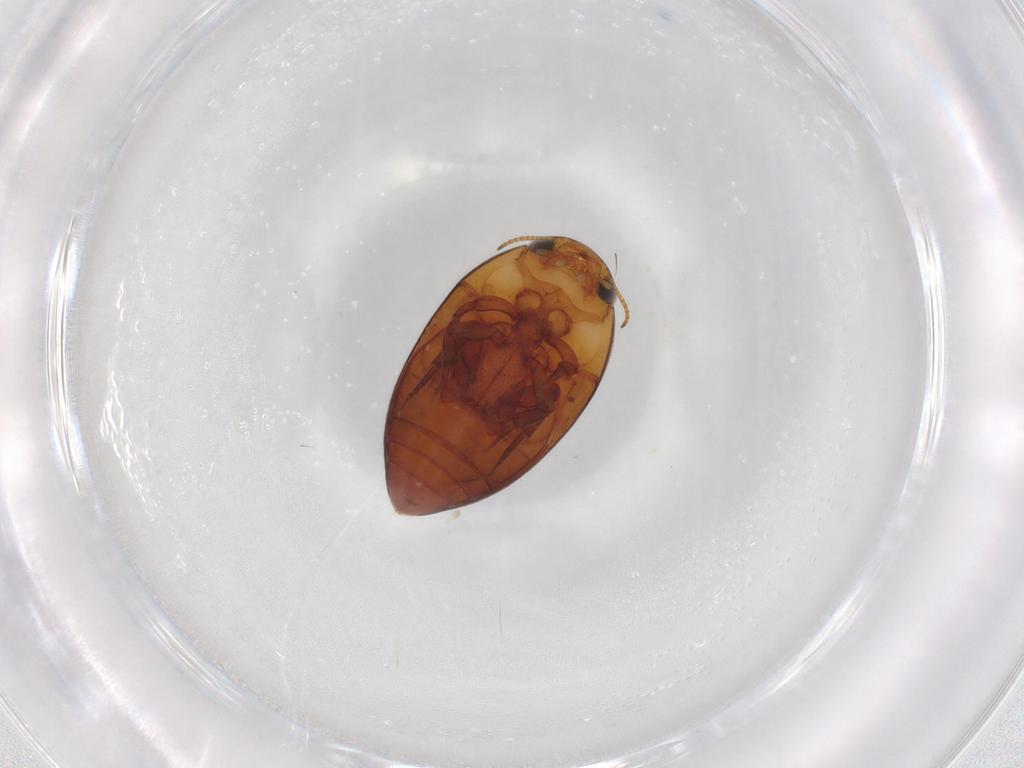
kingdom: Animalia
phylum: Arthropoda
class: Insecta
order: Coleoptera
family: Noteridae
